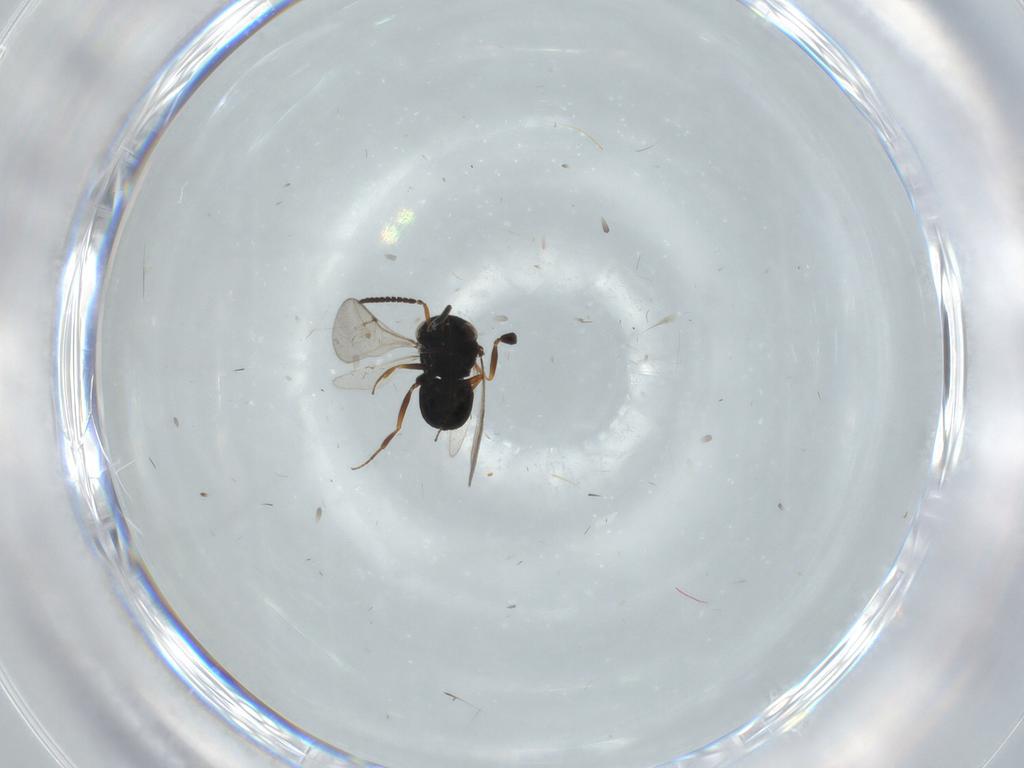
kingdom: Animalia
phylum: Arthropoda
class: Insecta
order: Hymenoptera
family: Scelionidae
